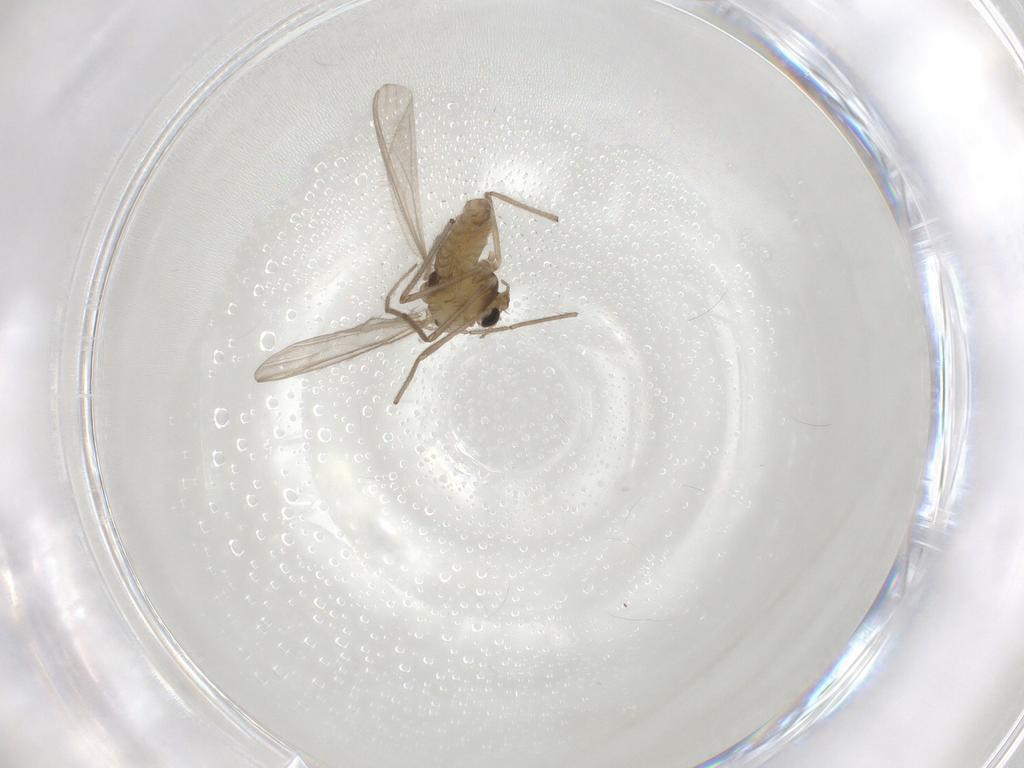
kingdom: Animalia
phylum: Arthropoda
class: Insecta
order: Diptera
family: Chironomidae
